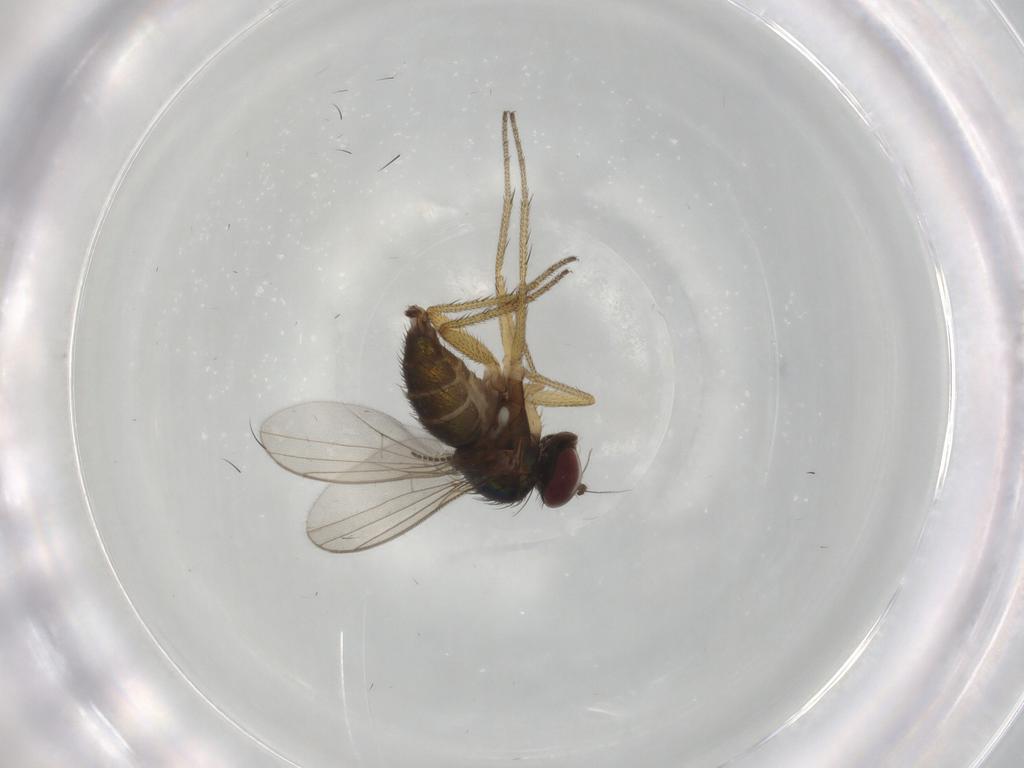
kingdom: Animalia
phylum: Arthropoda
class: Insecta
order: Diptera
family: Dolichopodidae
